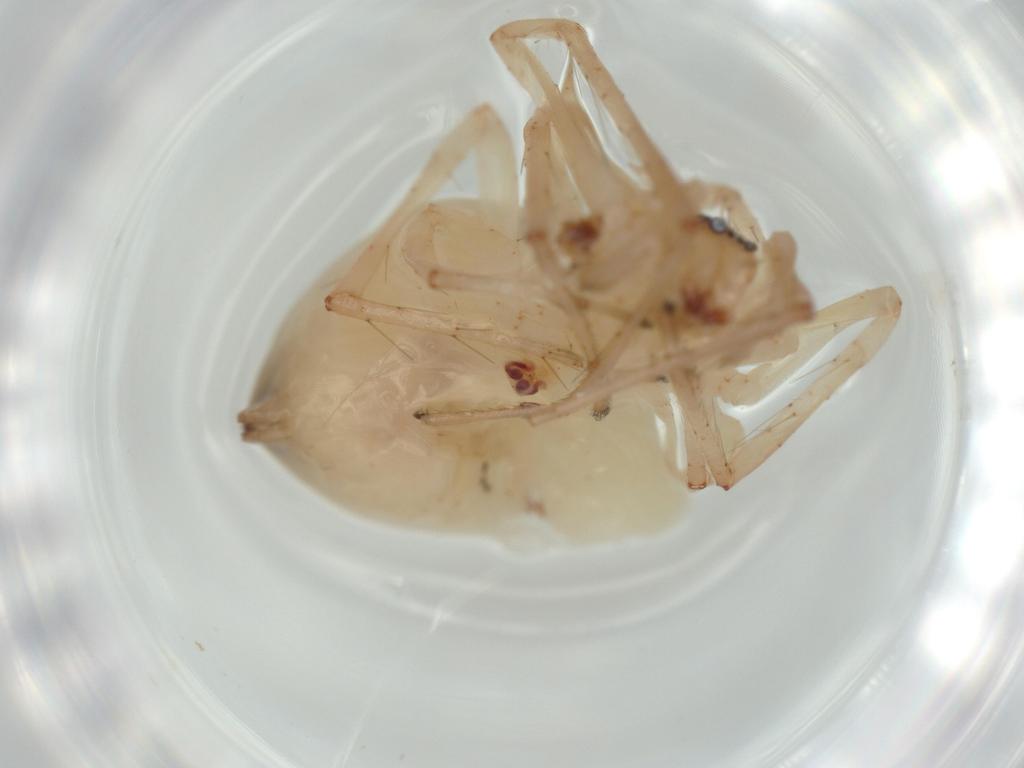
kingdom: Animalia
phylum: Arthropoda
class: Arachnida
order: Araneae
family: Anyphaenidae
